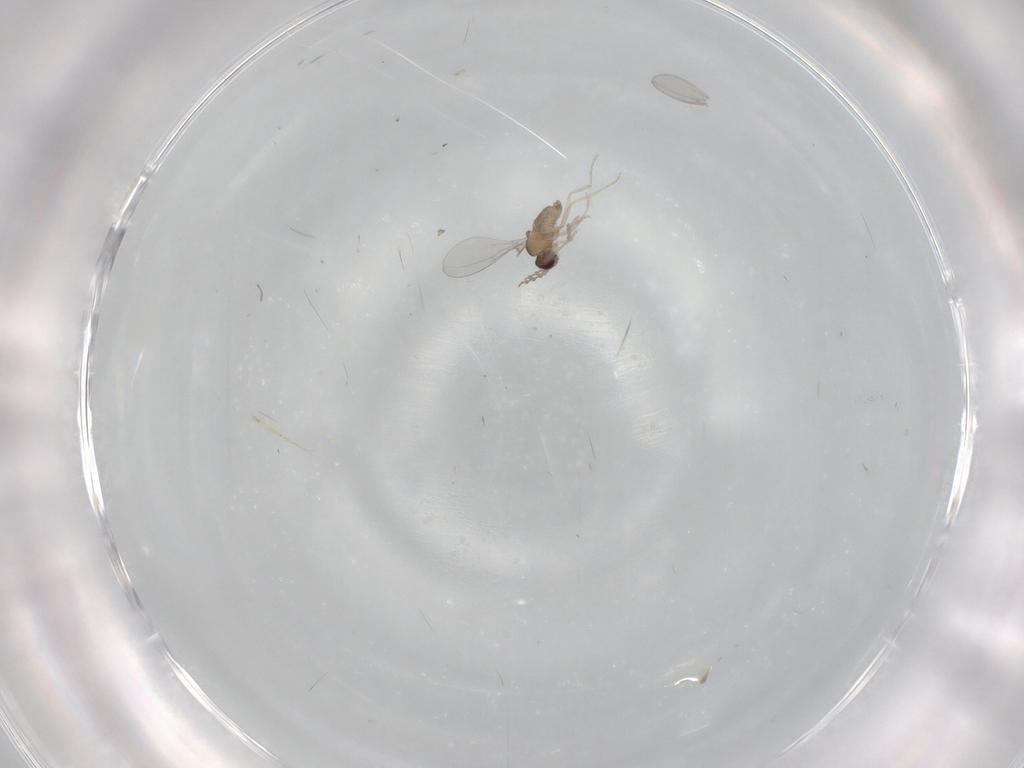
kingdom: Animalia
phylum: Arthropoda
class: Insecta
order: Diptera
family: Cecidomyiidae
